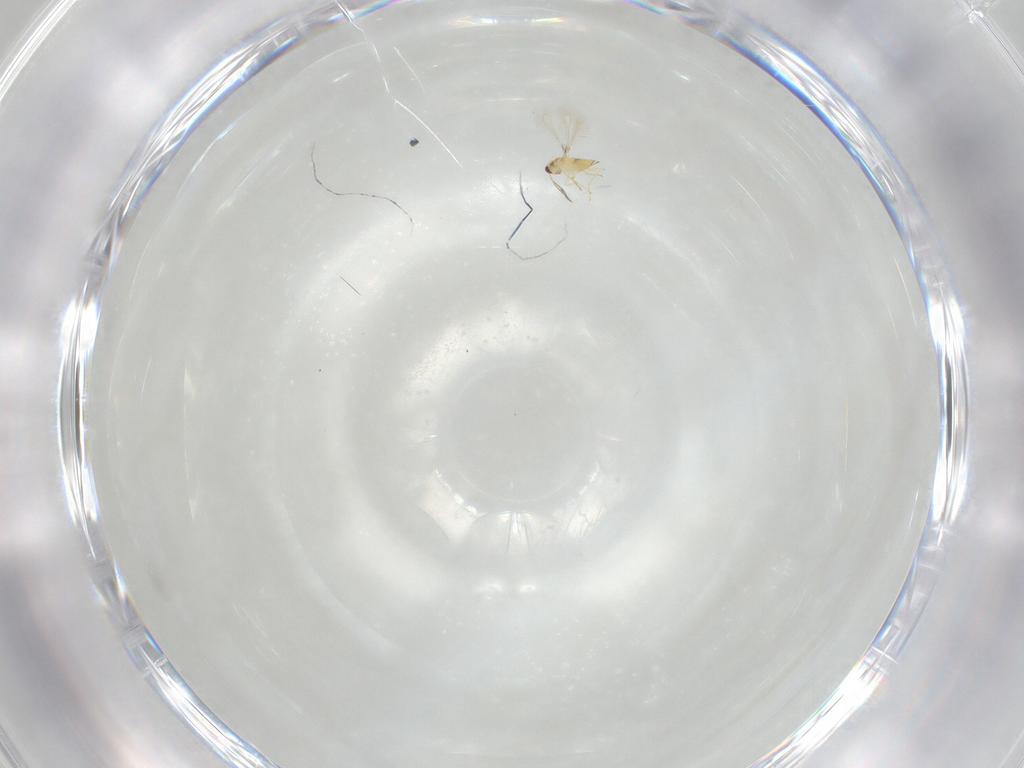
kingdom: Animalia
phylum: Arthropoda
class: Insecta
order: Hymenoptera
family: Mymaridae
